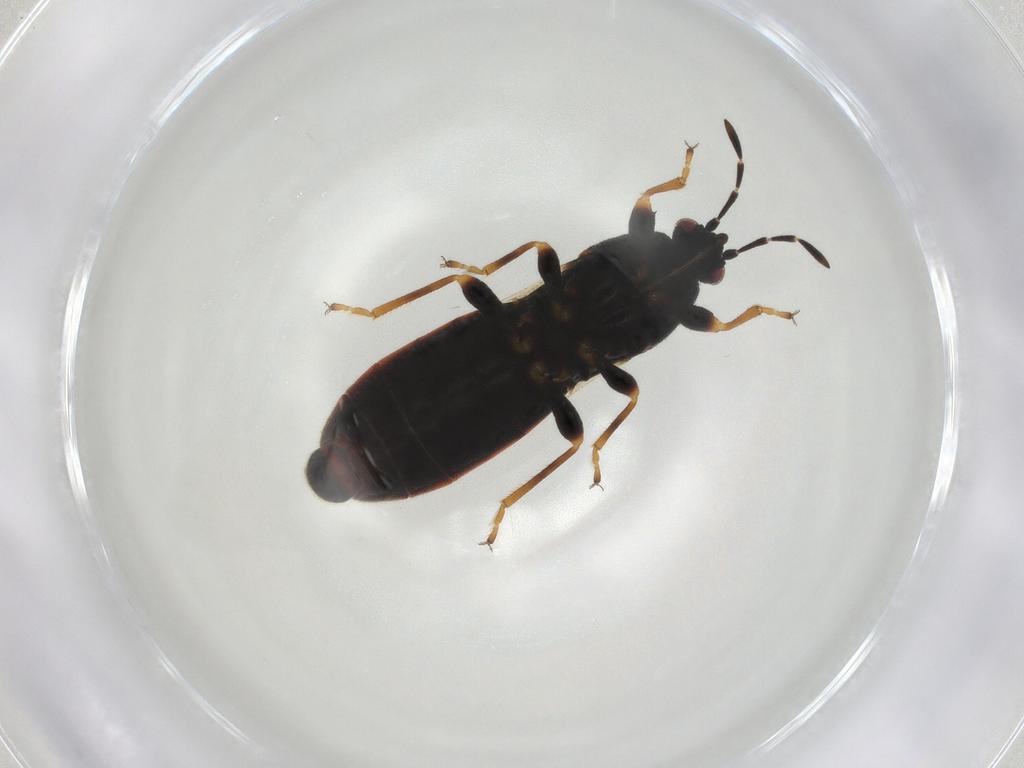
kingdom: Animalia
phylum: Arthropoda
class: Insecta
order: Hemiptera
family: Blissidae
